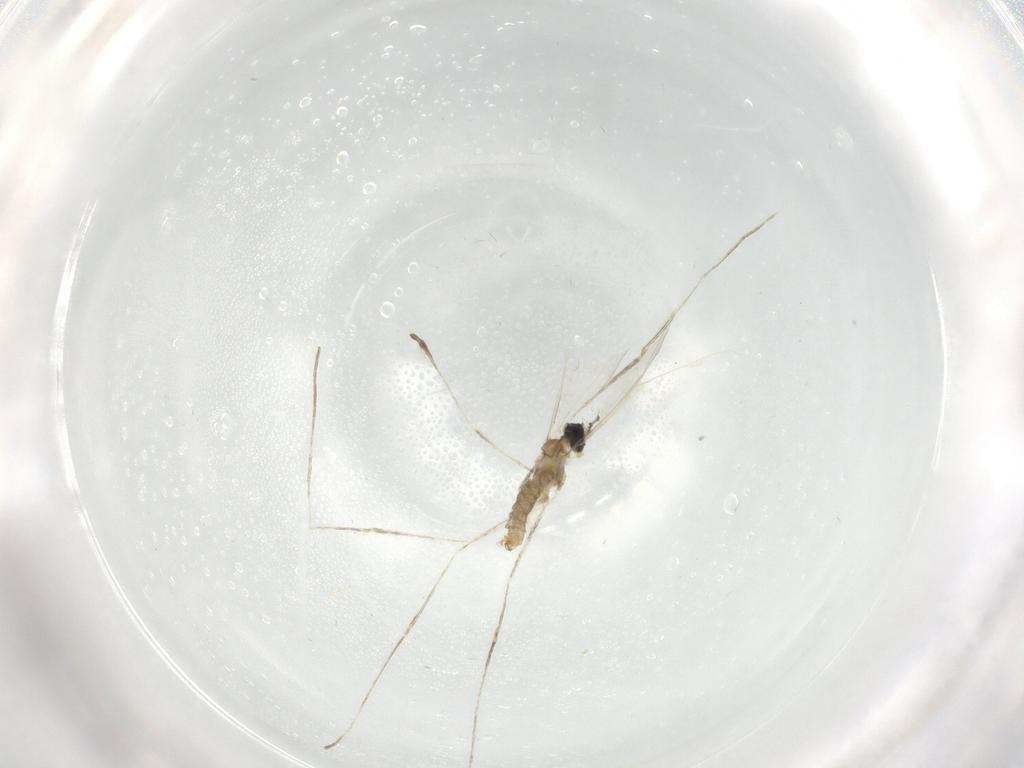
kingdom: Animalia
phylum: Arthropoda
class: Insecta
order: Diptera
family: Cecidomyiidae
